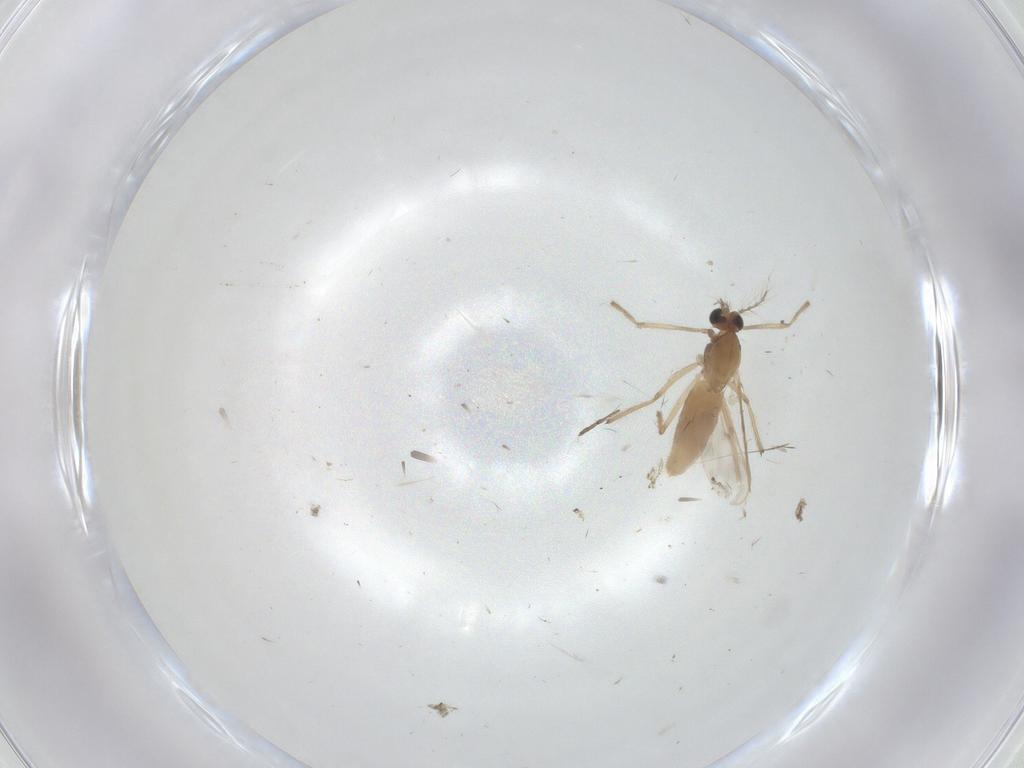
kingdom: Animalia
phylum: Arthropoda
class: Insecta
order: Diptera
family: Chironomidae
